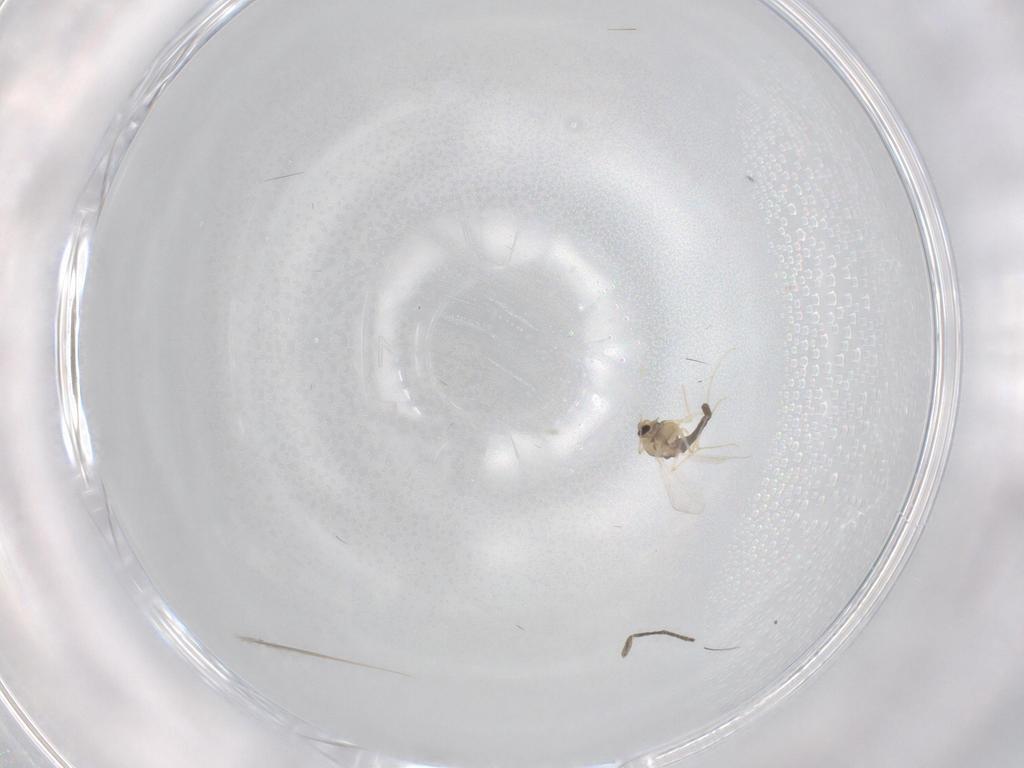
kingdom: Animalia
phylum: Arthropoda
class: Insecta
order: Diptera
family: Chironomidae
